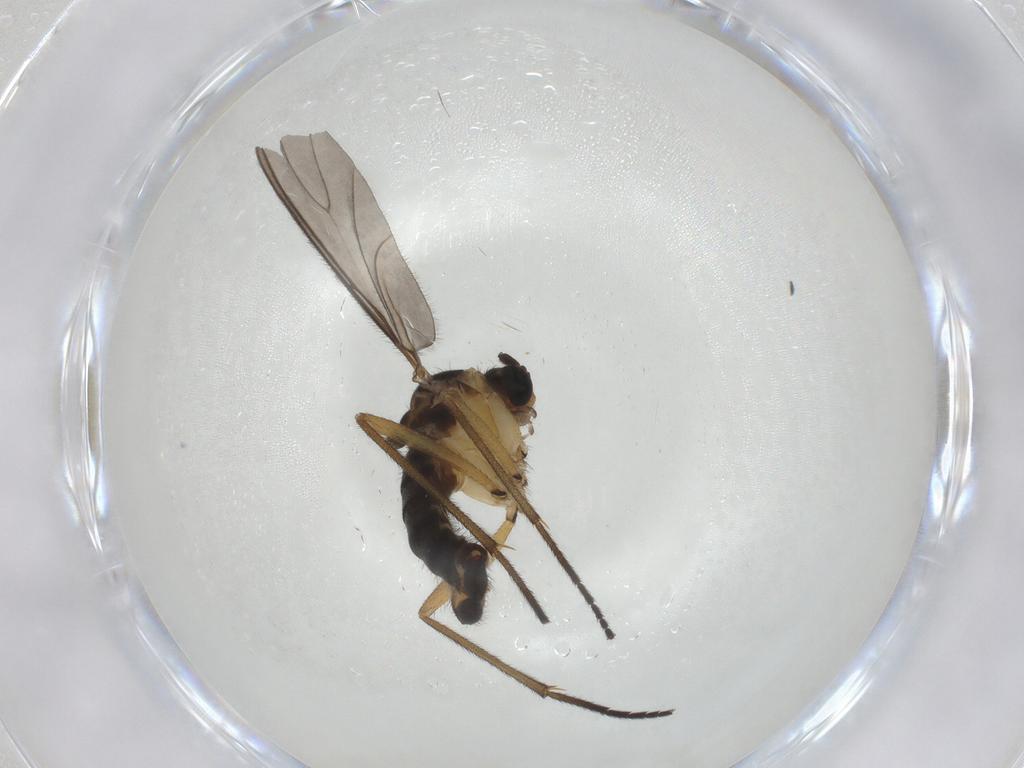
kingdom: Animalia
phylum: Arthropoda
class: Insecta
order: Diptera
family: Sciaridae
